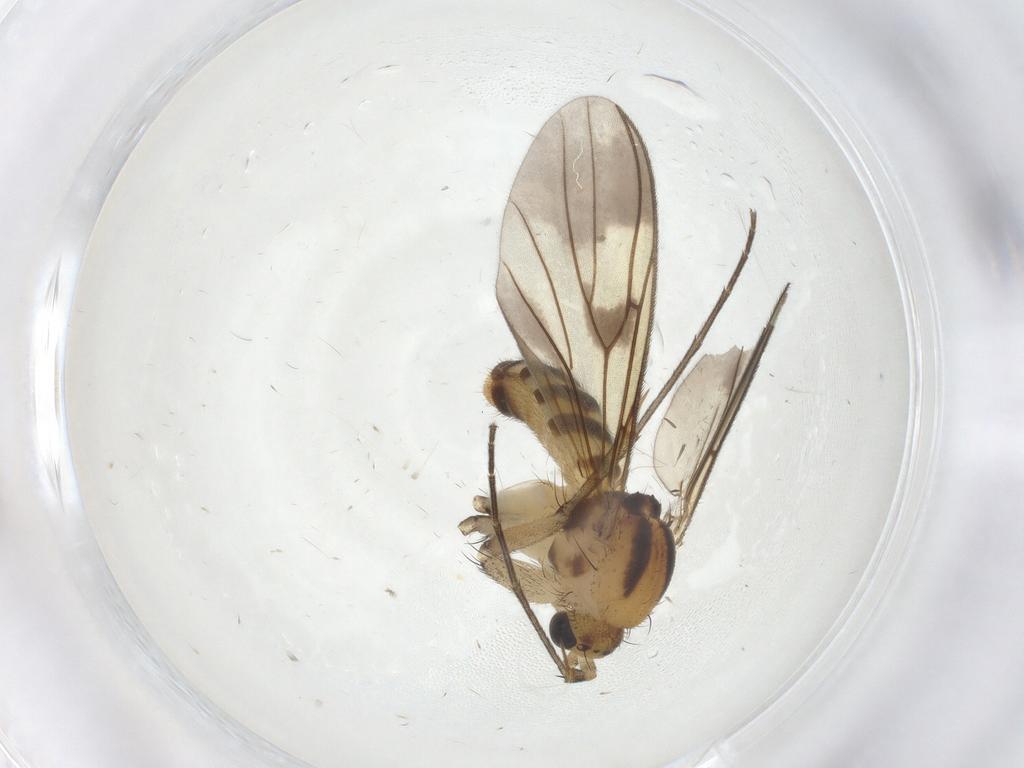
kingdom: Animalia
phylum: Arthropoda
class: Insecta
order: Diptera
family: Mycetophilidae
